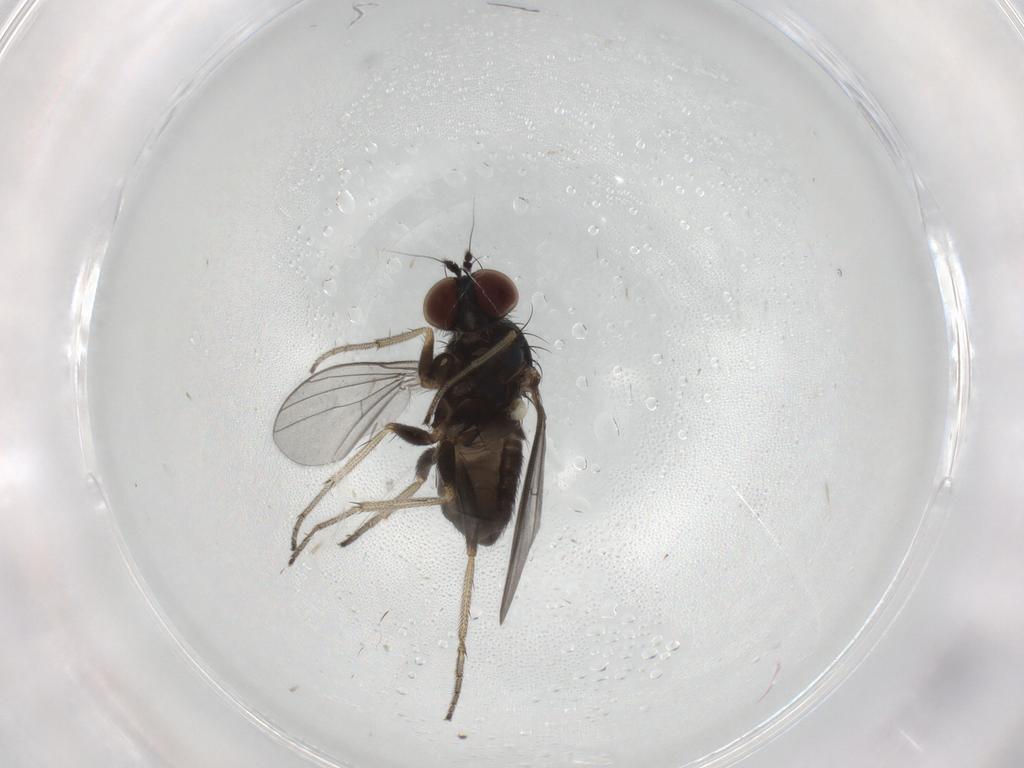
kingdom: Animalia
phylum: Arthropoda
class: Insecta
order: Diptera
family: Dolichopodidae
